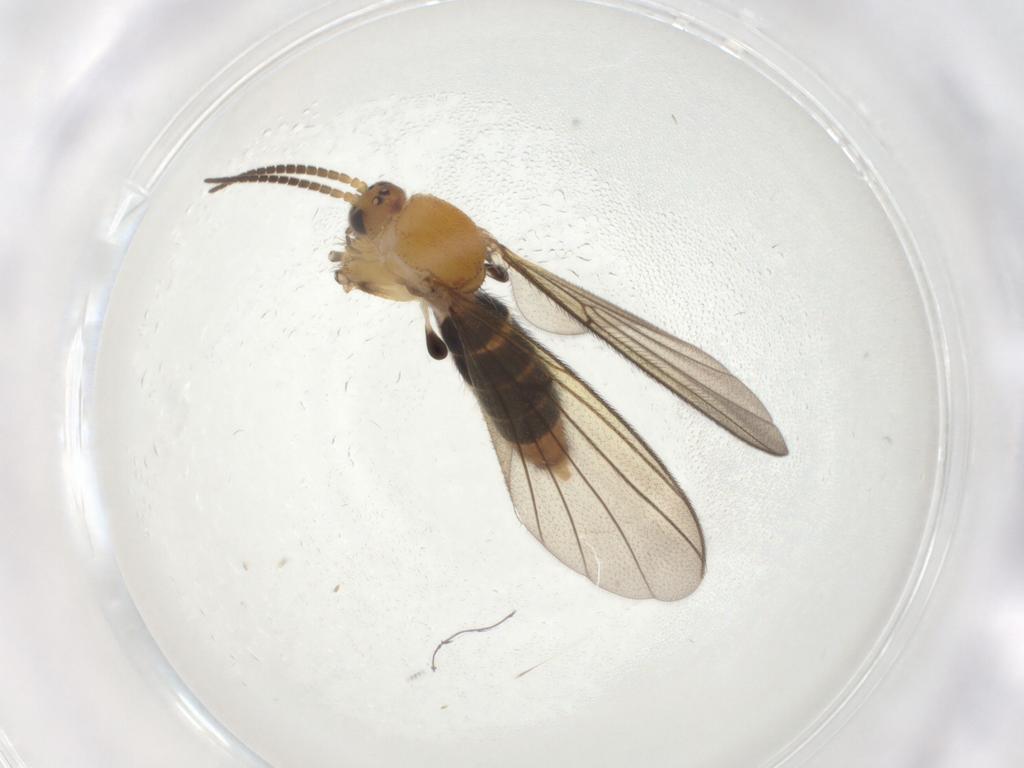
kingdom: Animalia
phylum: Arthropoda
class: Insecta
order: Diptera
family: Mycetophilidae
